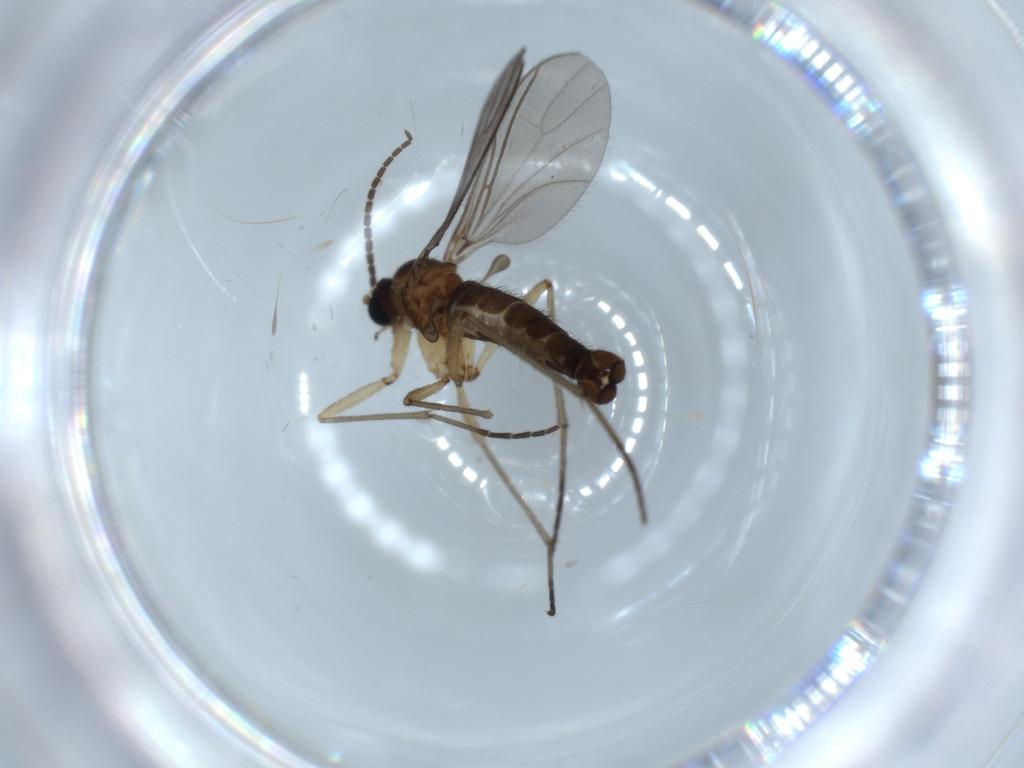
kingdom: Animalia
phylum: Arthropoda
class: Insecta
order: Diptera
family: Sciaridae
